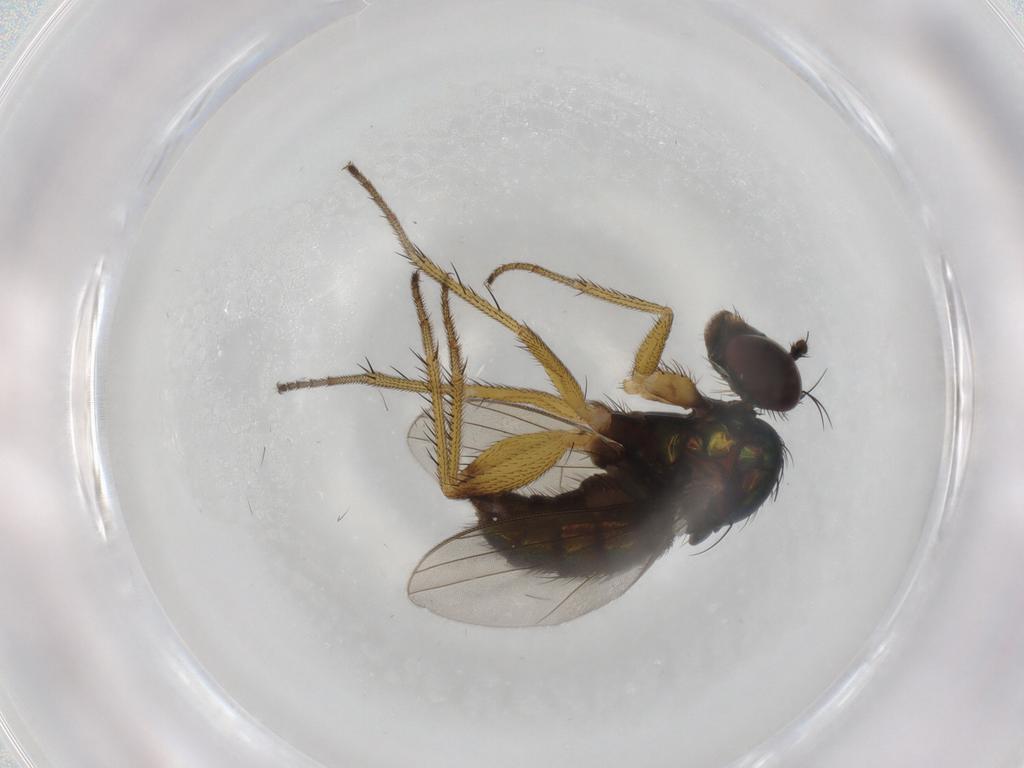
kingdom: Animalia
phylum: Arthropoda
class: Insecta
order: Diptera
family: Dolichopodidae
